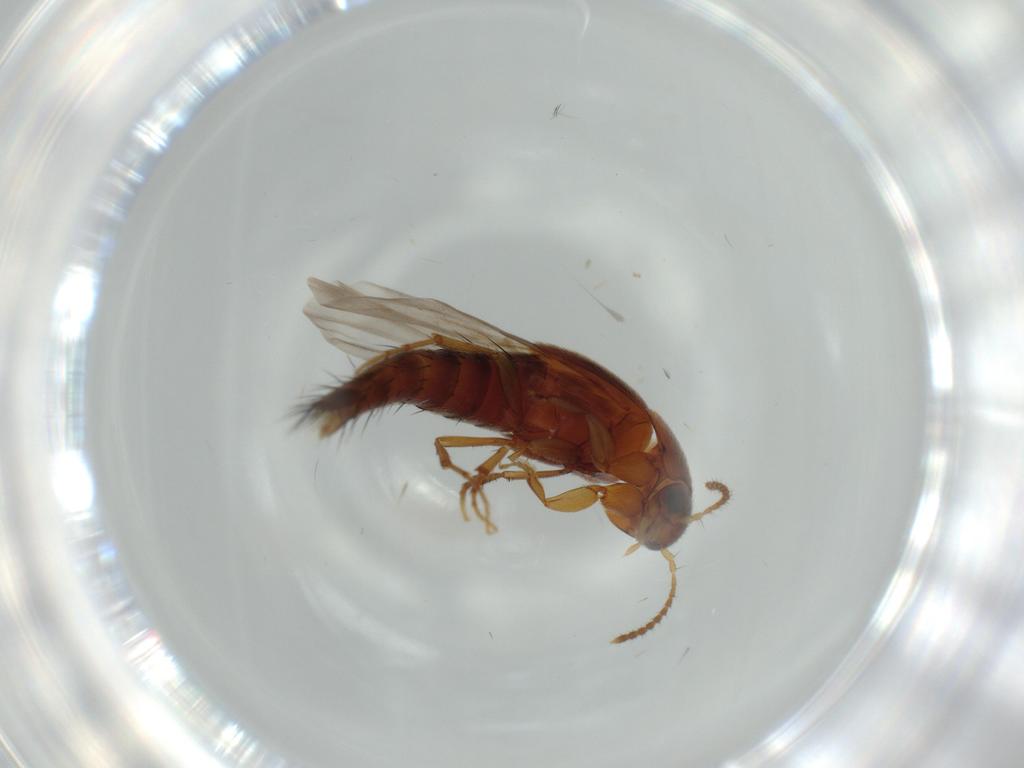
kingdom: Animalia
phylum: Arthropoda
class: Insecta
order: Coleoptera
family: Staphylinidae
